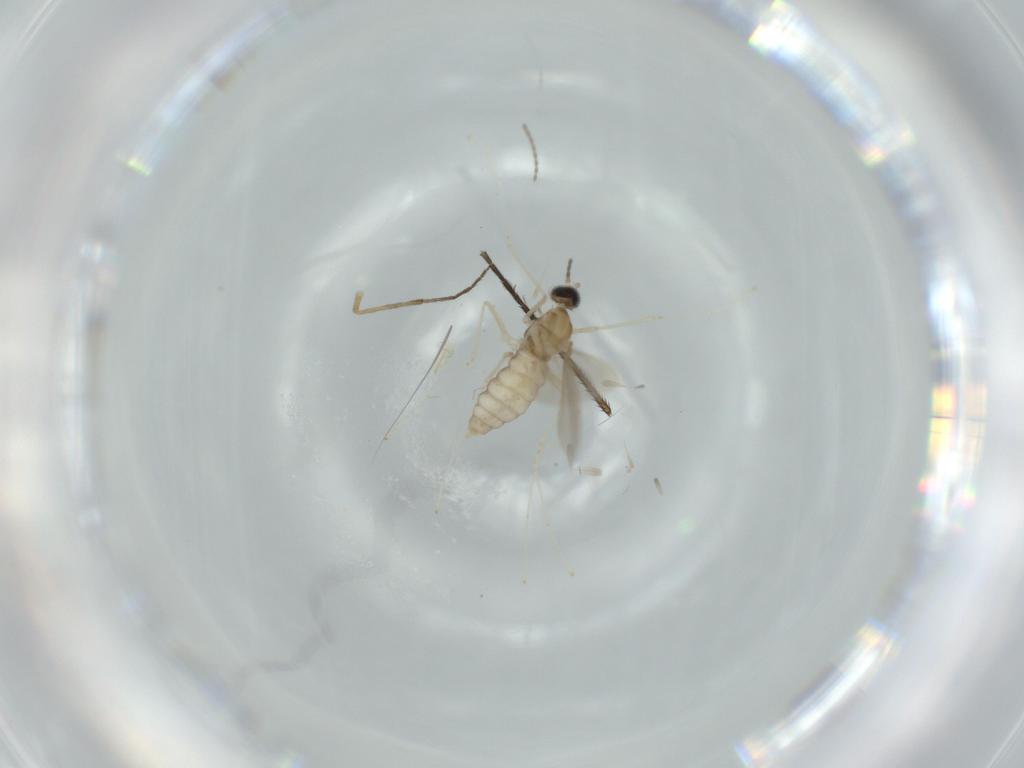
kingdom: Animalia
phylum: Arthropoda
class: Insecta
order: Diptera
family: Cecidomyiidae
